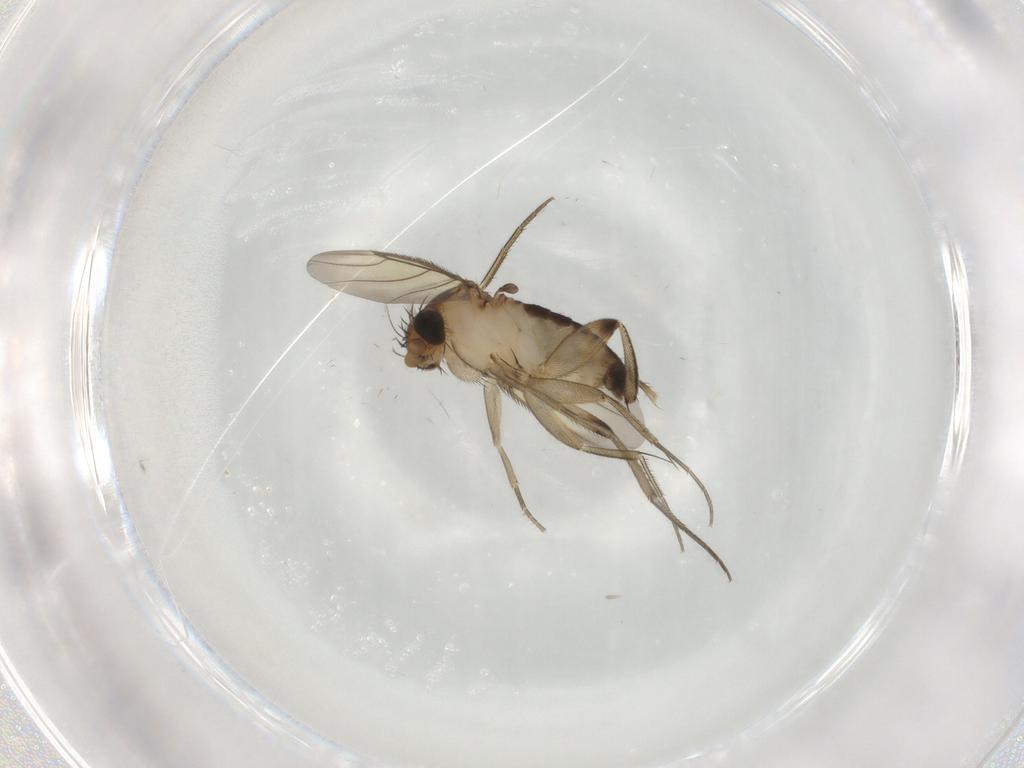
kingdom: Animalia
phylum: Arthropoda
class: Insecta
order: Diptera
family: Phoridae
